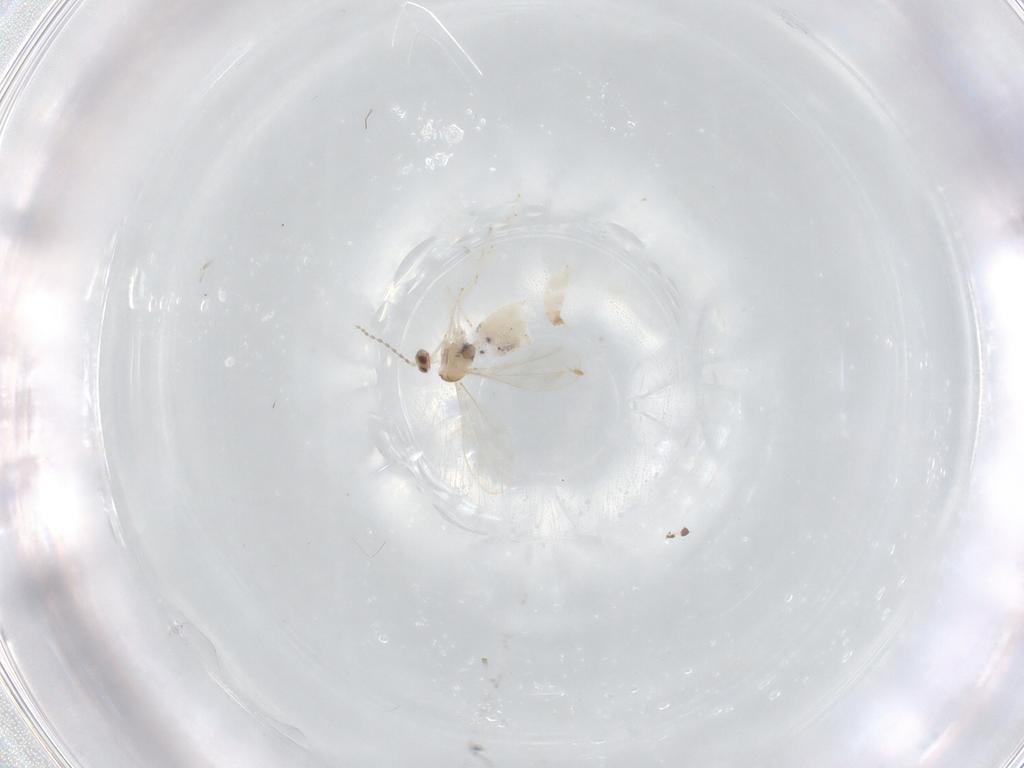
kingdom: Animalia
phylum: Arthropoda
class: Insecta
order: Diptera
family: Cecidomyiidae
